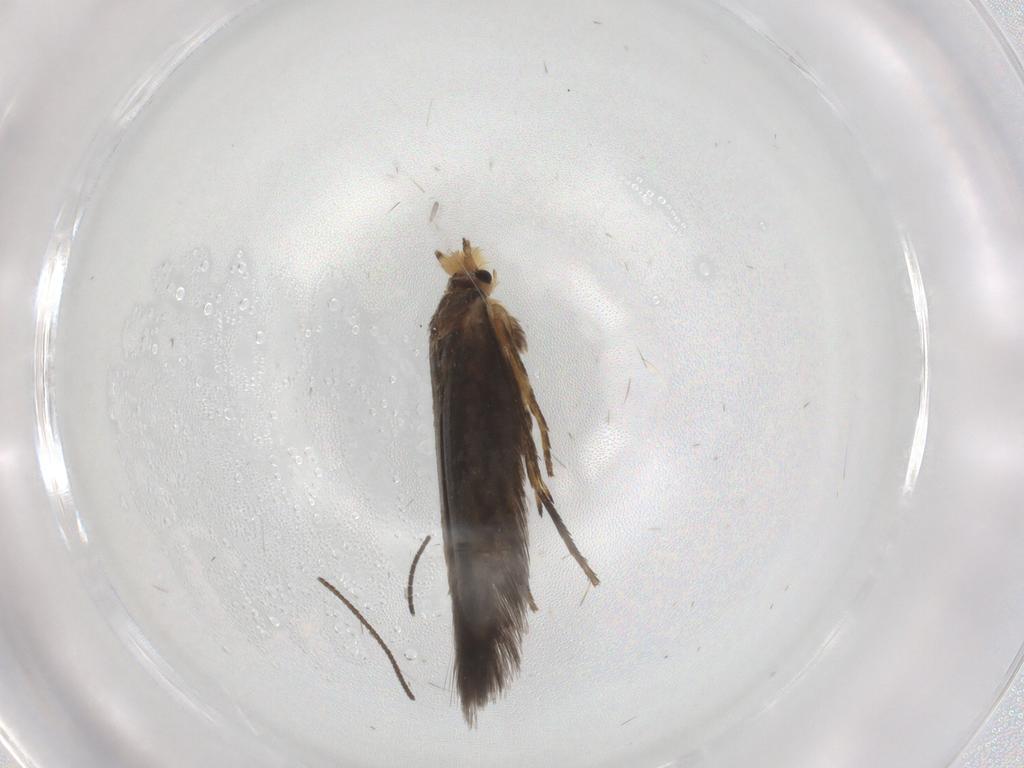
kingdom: Animalia
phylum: Arthropoda
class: Insecta
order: Lepidoptera
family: Nepticulidae
